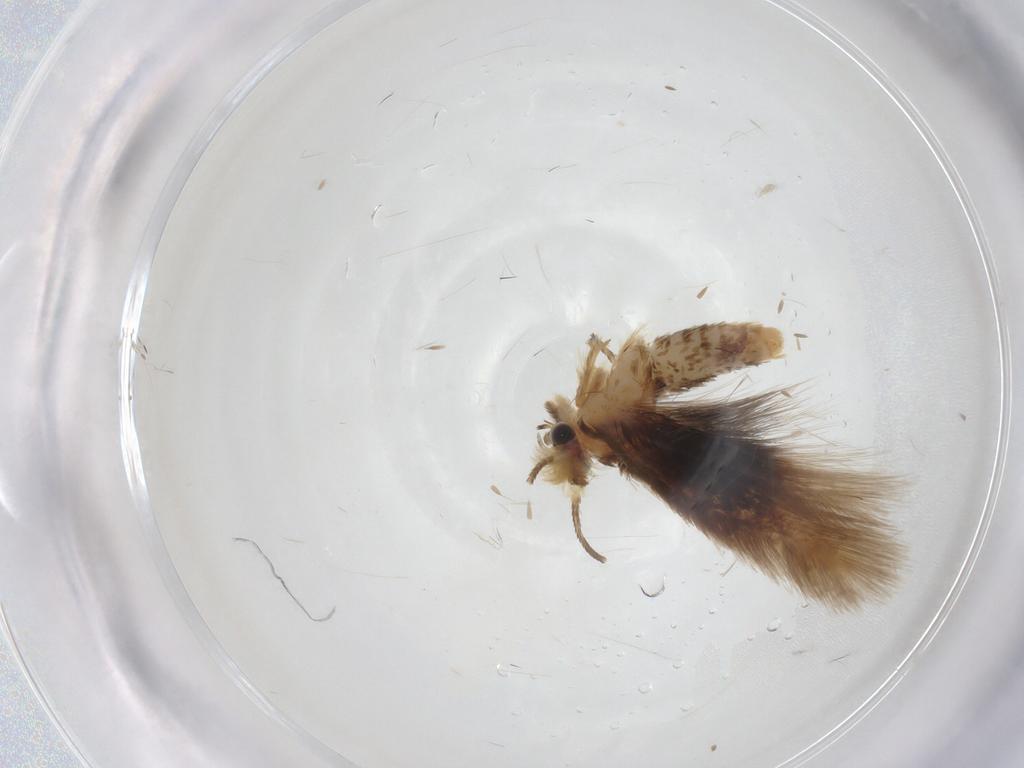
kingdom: Animalia
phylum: Arthropoda
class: Insecta
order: Lepidoptera
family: Nepticulidae
